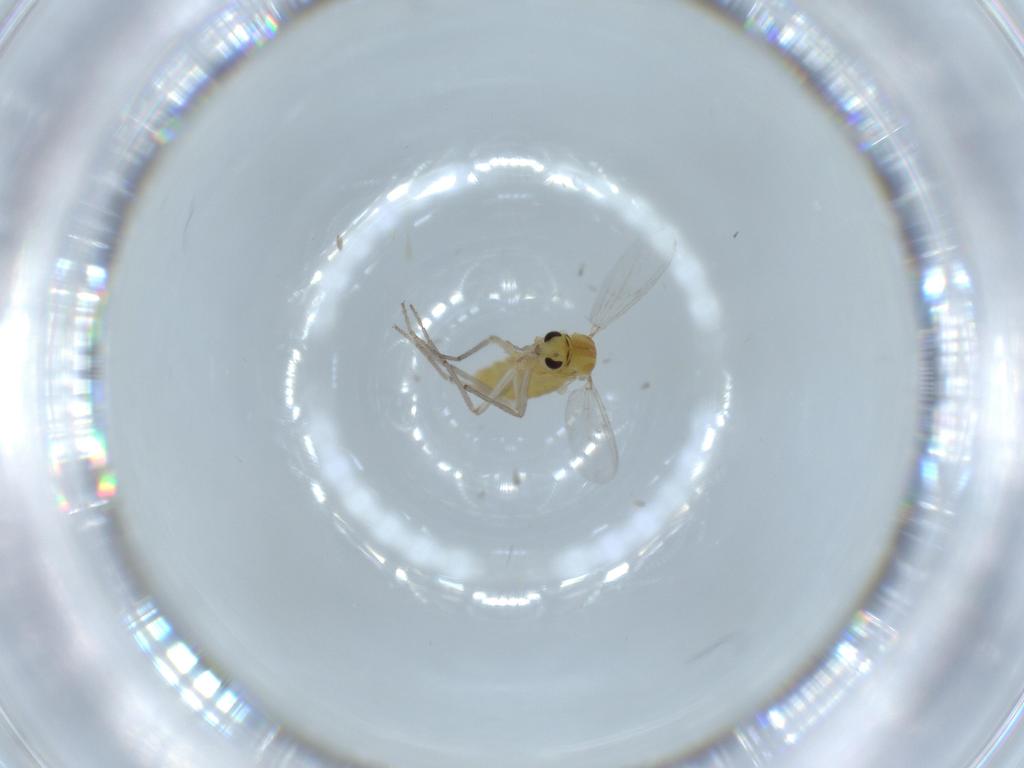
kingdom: Animalia
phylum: Arthropoda
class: Insecta
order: Diptera
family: Chironomidae
